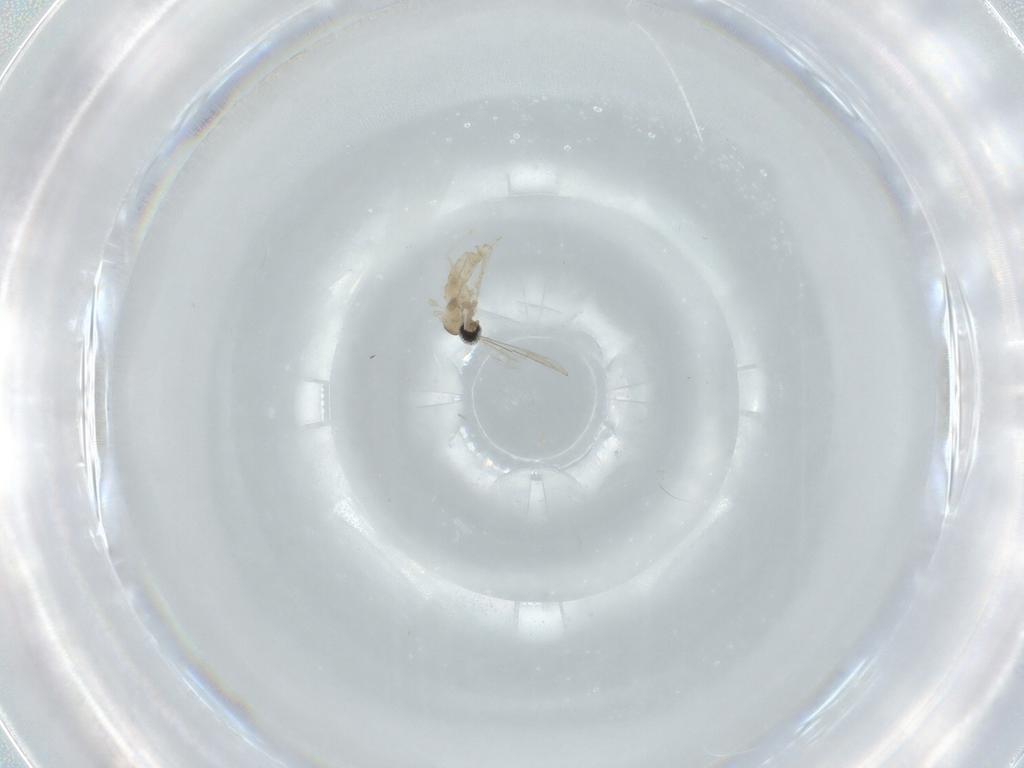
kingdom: Animalia
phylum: Arthropoda
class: Insecta
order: Diptera
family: Cecidomyiidae
